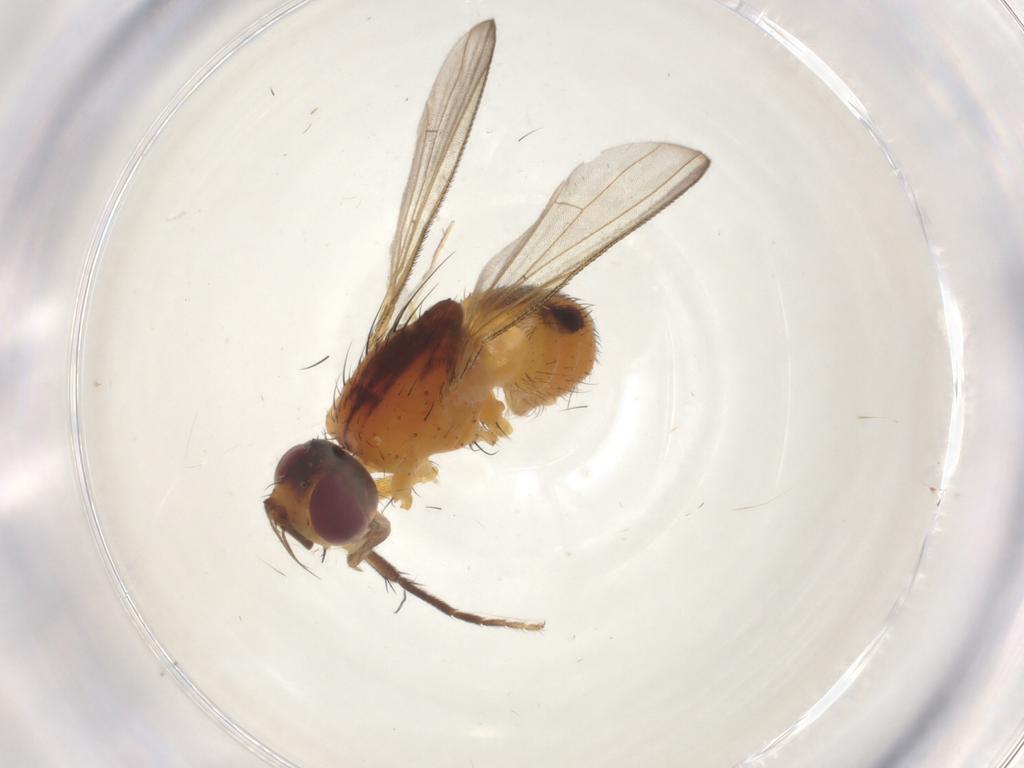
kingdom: Animalia
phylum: Arthropoda
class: Insecta
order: Diptera
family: Muscidae
